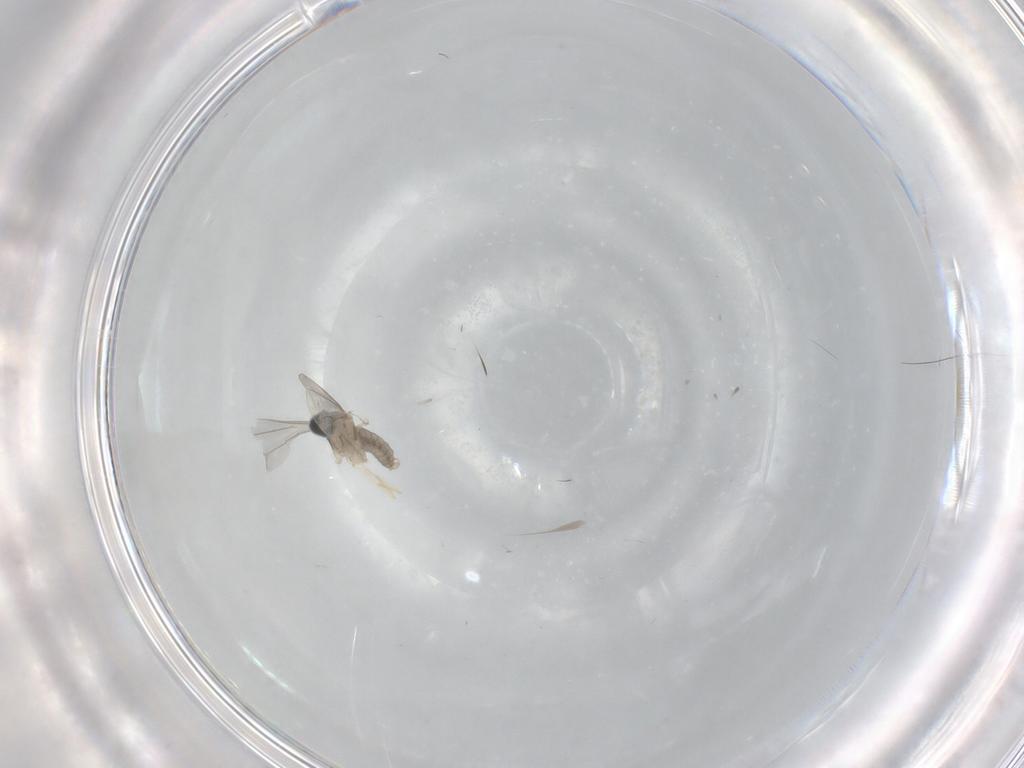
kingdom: Animalia
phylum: Arthropoda
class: Insecta
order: Diptera
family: Cecidomyiidae
